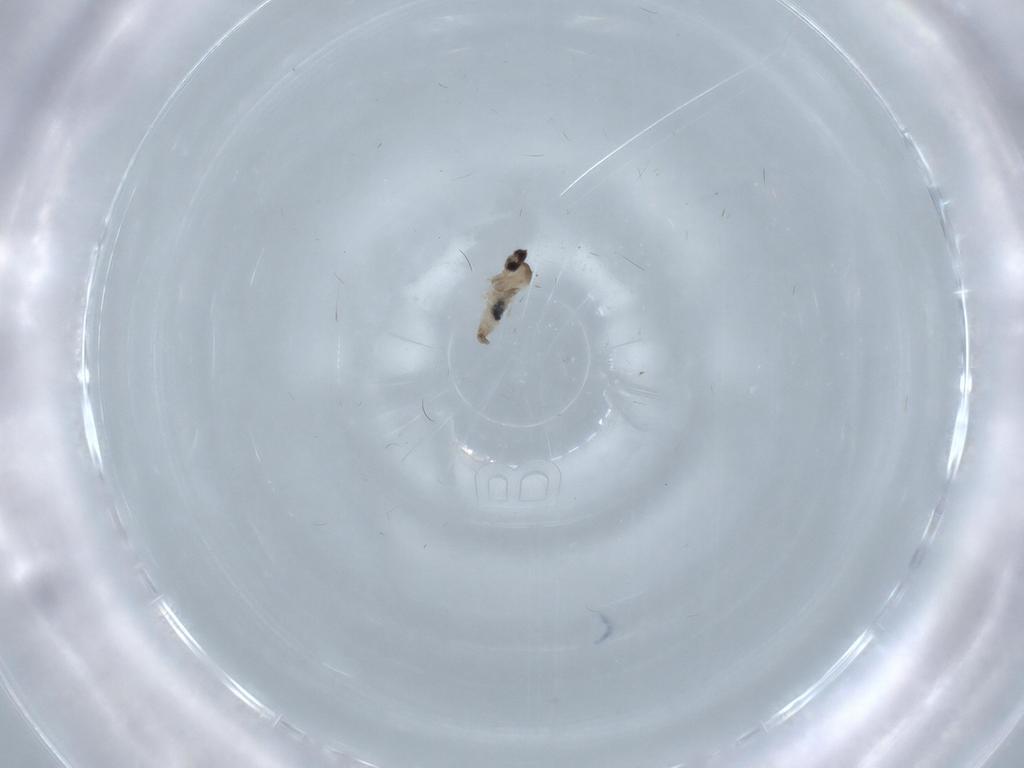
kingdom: Animalia
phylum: Arthropoda
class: Insecta
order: Diptera
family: Cecidomyiidae
